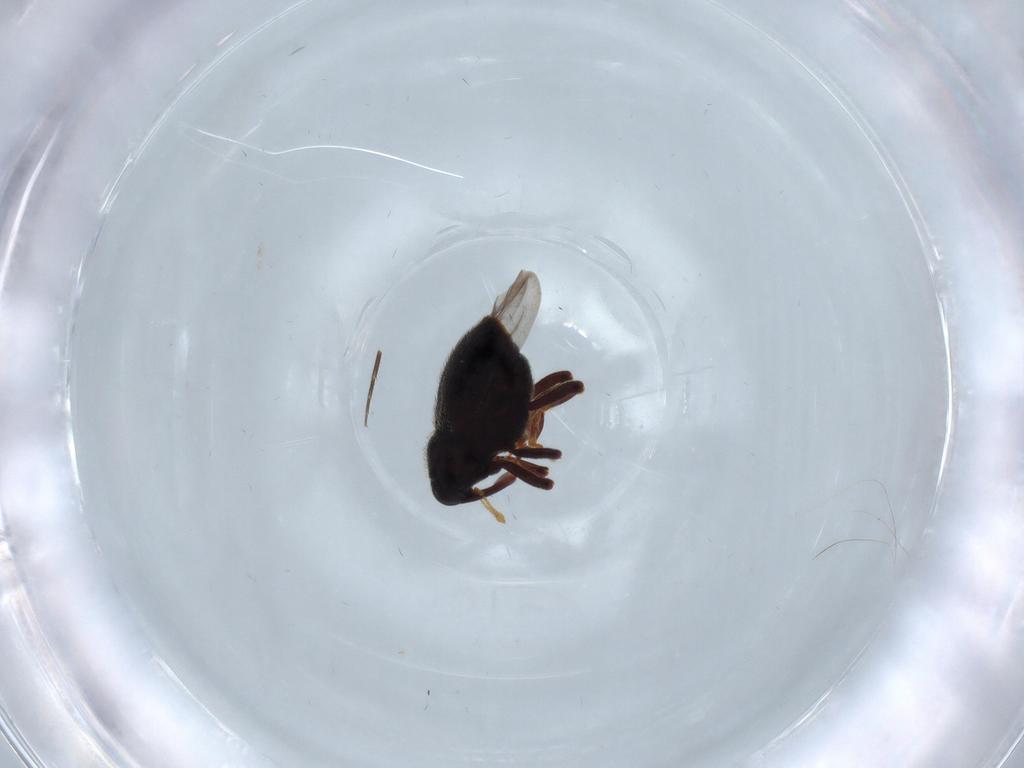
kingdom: Animalia
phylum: Arthropoda
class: Insecta
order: Coleoptera
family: Curculionidae
